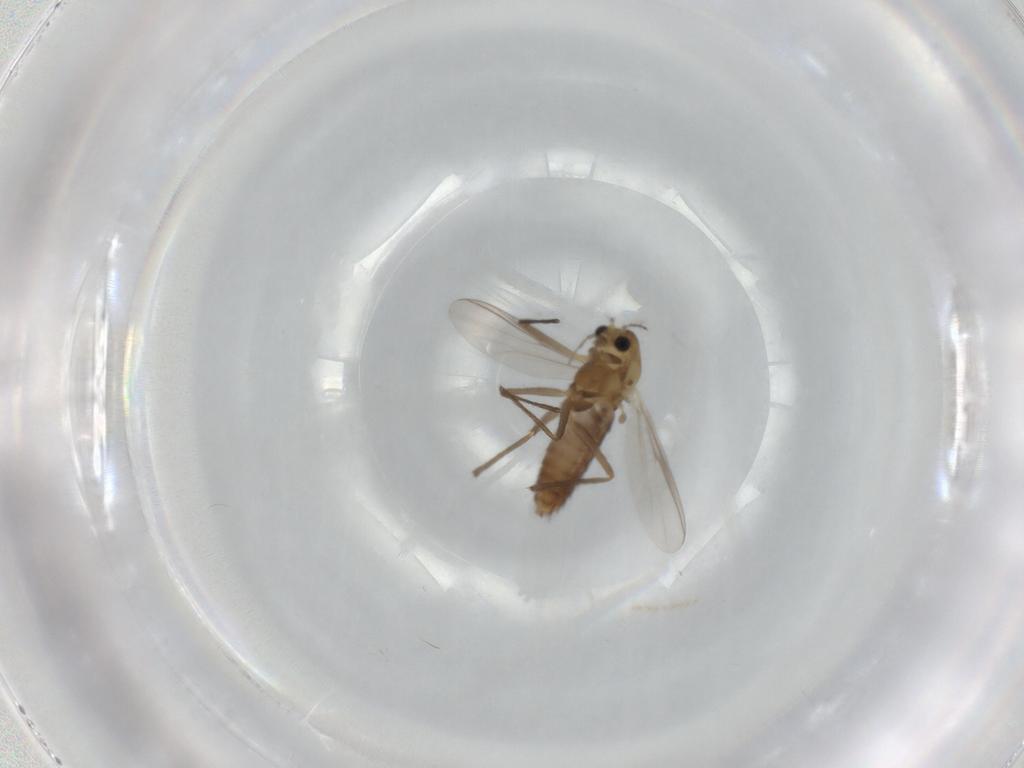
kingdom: Animalia
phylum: Arthropoda
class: Insecta
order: Diptera
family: Chironomidae
